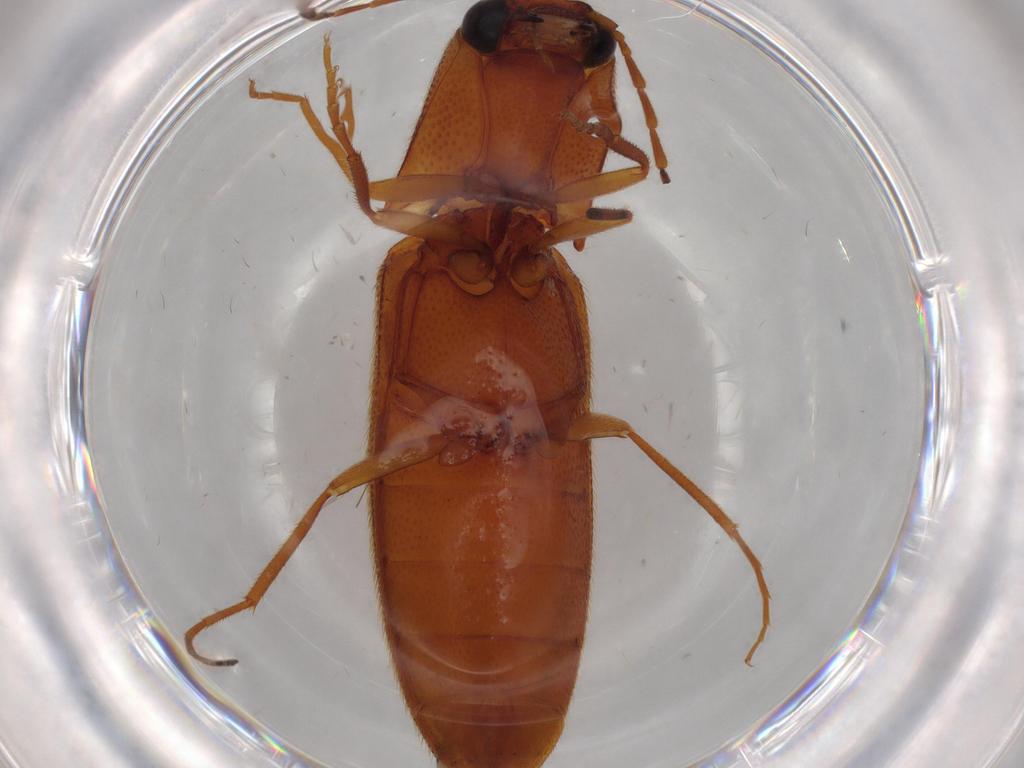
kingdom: Animalia
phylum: Arthropoda
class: Insecta
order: Coleoptera
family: Elateridae
